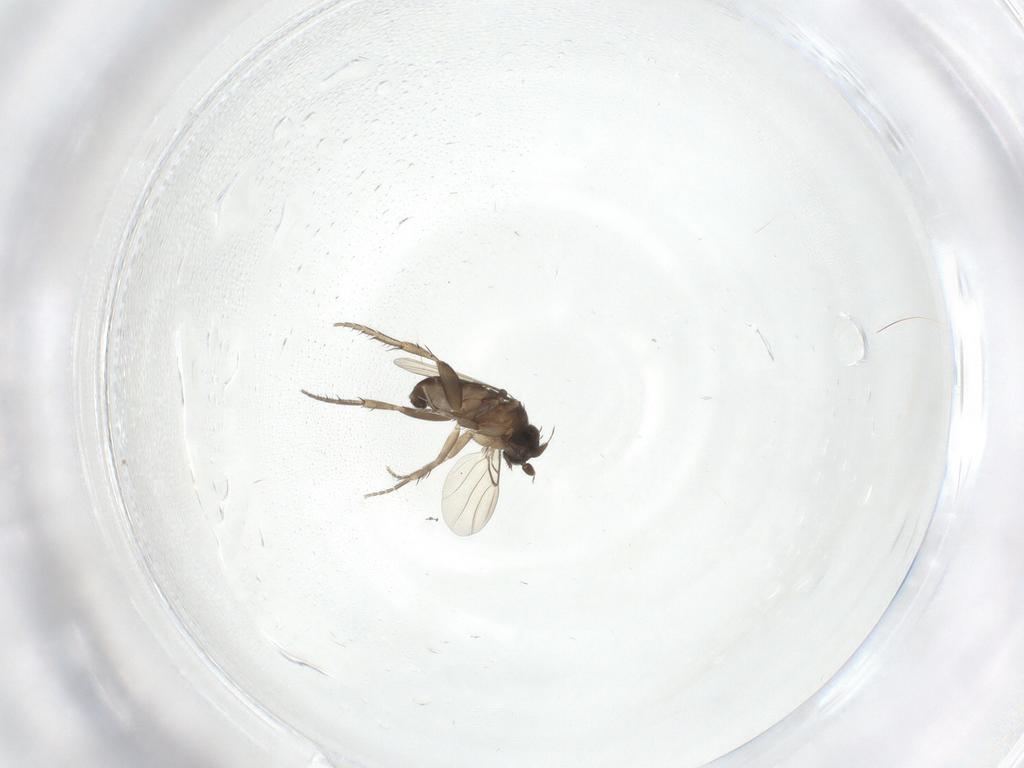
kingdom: Animalia
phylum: Arthropoda
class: Insecta
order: Diptera
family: Phoridae
